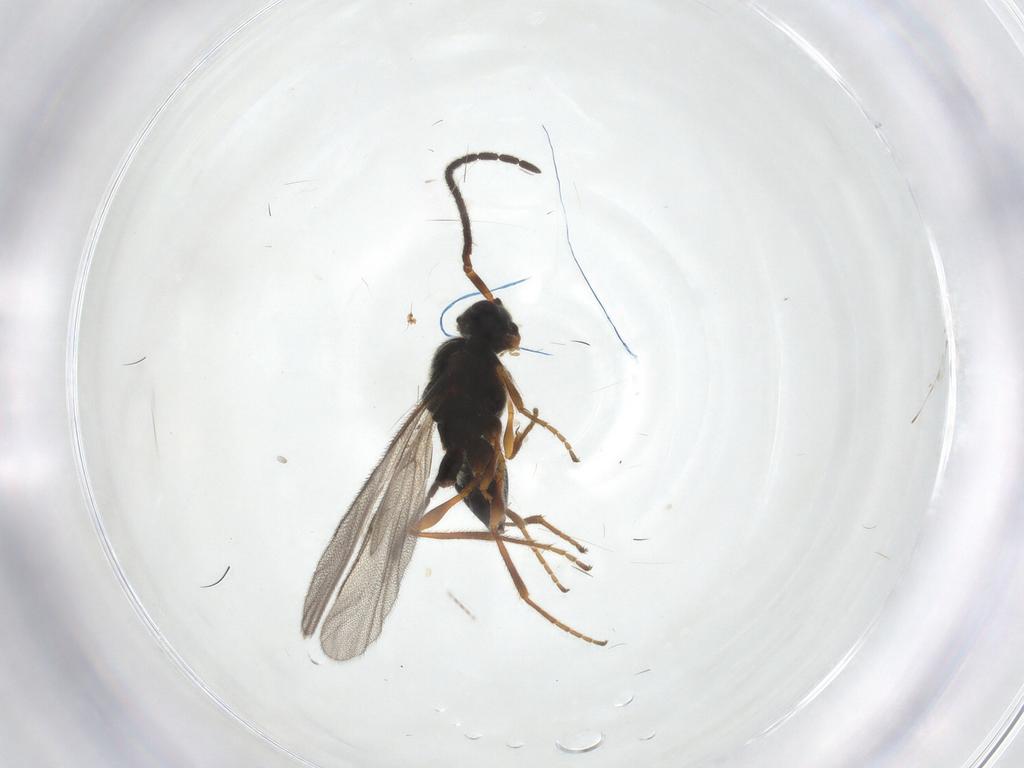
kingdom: Animalia
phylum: Arthropoda
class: Insecta
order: Hymenoptera
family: Diapriidae
